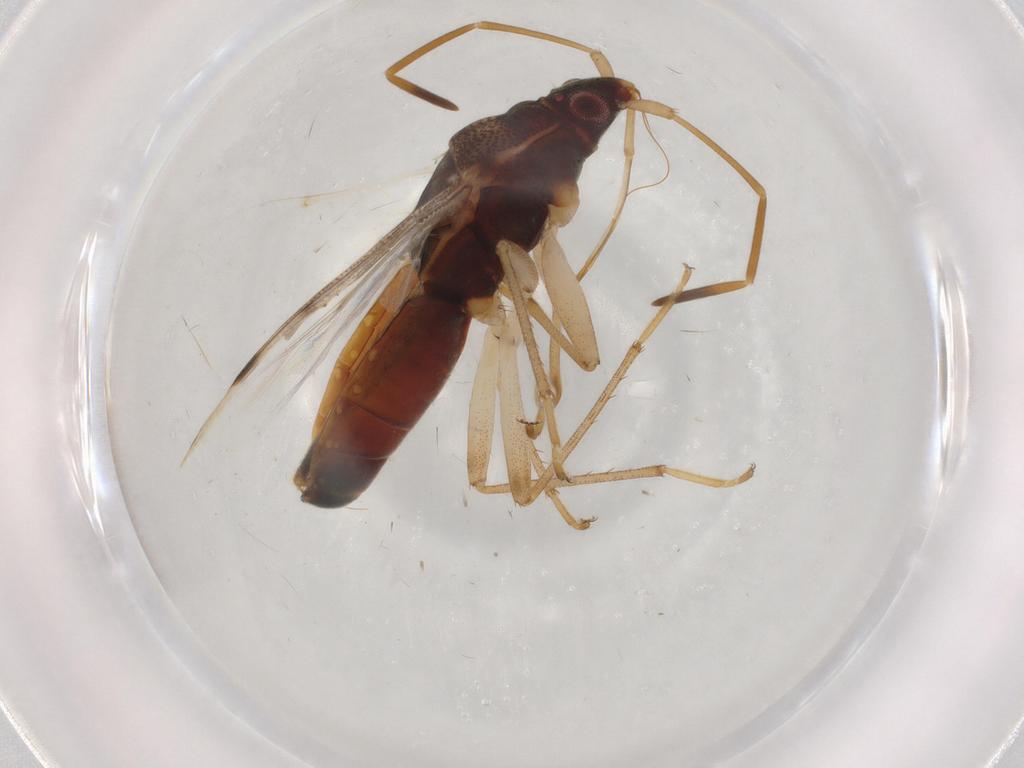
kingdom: Animalia
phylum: Arthropoda
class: Insecta
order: Hemiptera
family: Rhyparochromidae
